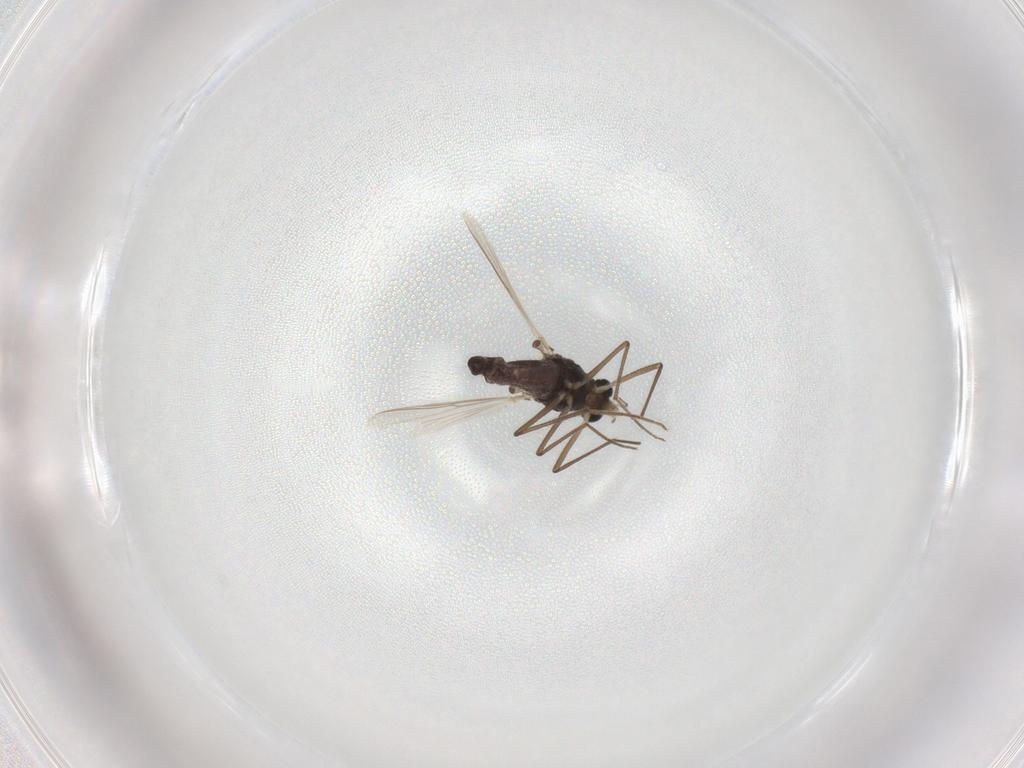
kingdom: Animalia
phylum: Arthropoda
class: Insecta
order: Diptera
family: Chironomidae
